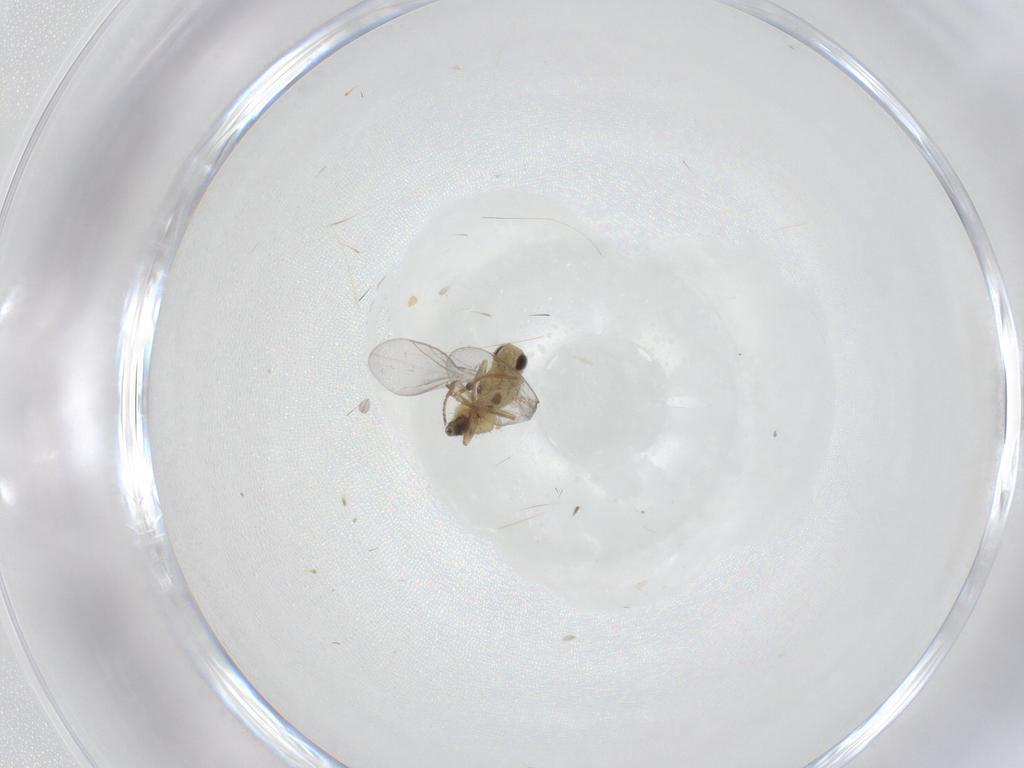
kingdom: Animalia
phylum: Arthropoda
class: Insecta
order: Diptera
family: Agromyzidae
